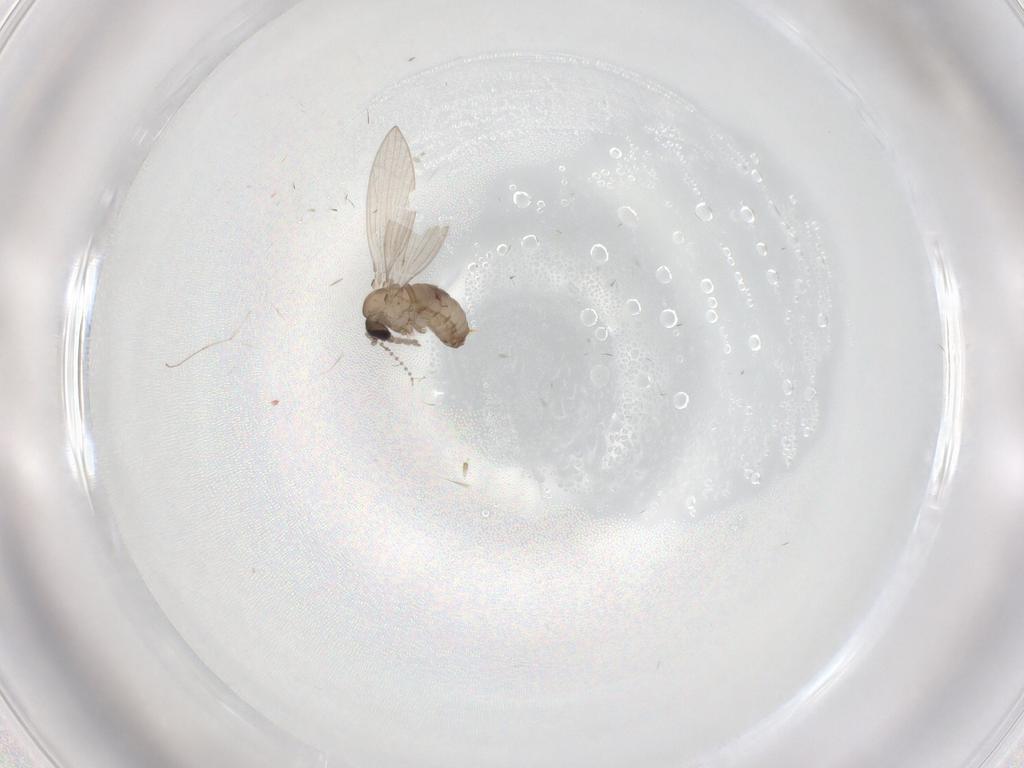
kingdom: Animalia
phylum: Arthropoda
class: Insecta
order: Diptera
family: Psychodidae
